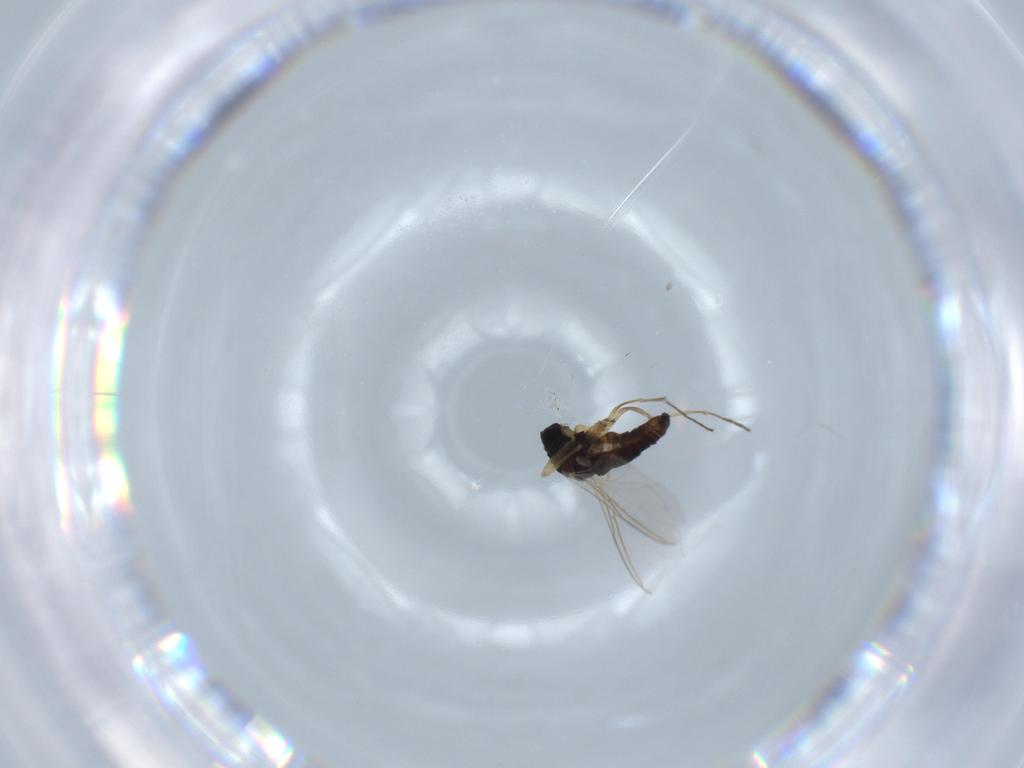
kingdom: Animalia
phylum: Arthropoda
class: Insecta
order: Diptera
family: Sciaridae
